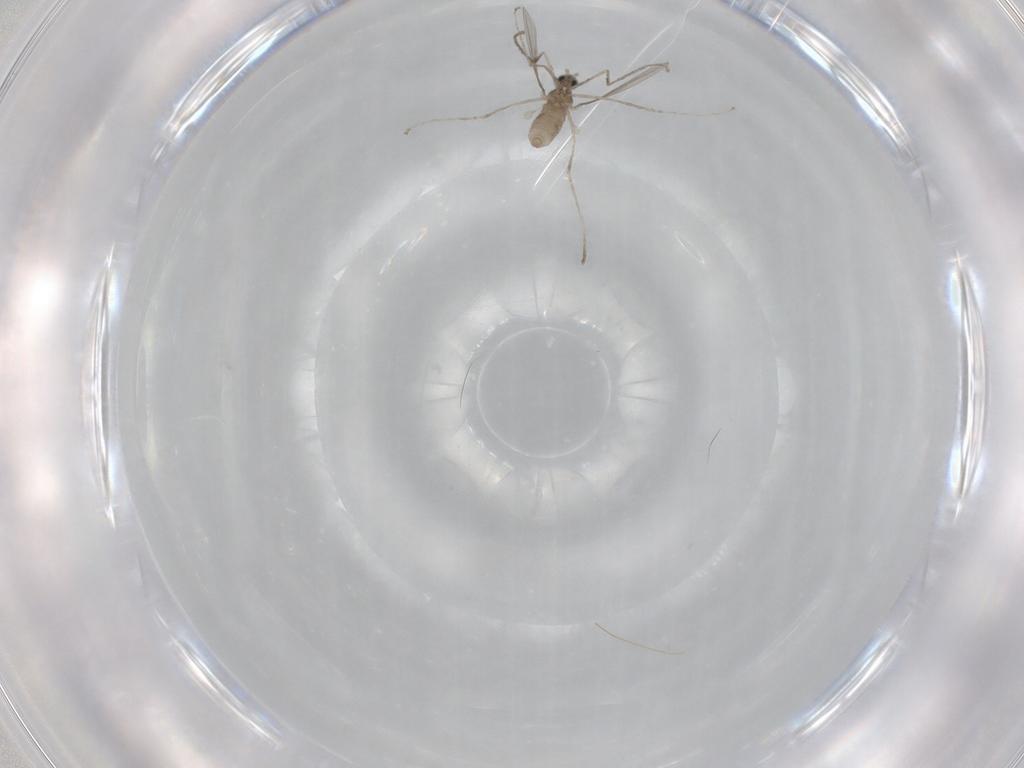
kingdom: Animalia
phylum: Arthropoda
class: Insecta
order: Diptera
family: Cecidomyiidae
